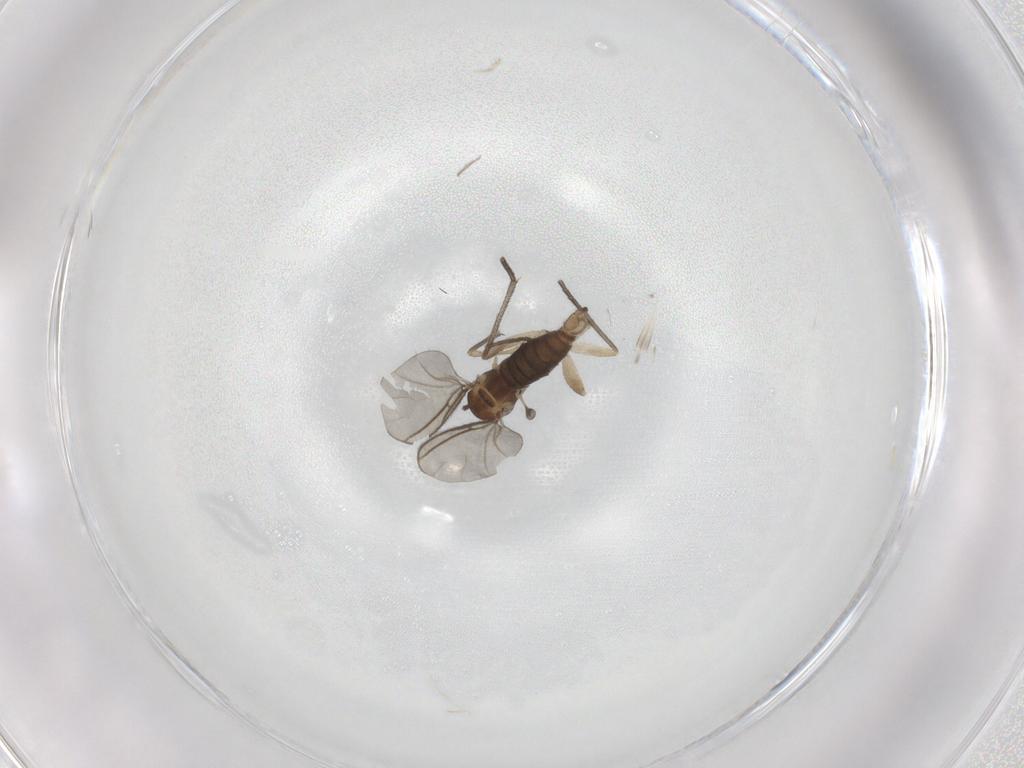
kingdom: Animalia
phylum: Arthropoda
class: Insecta
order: Diptera
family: Sciaridae
